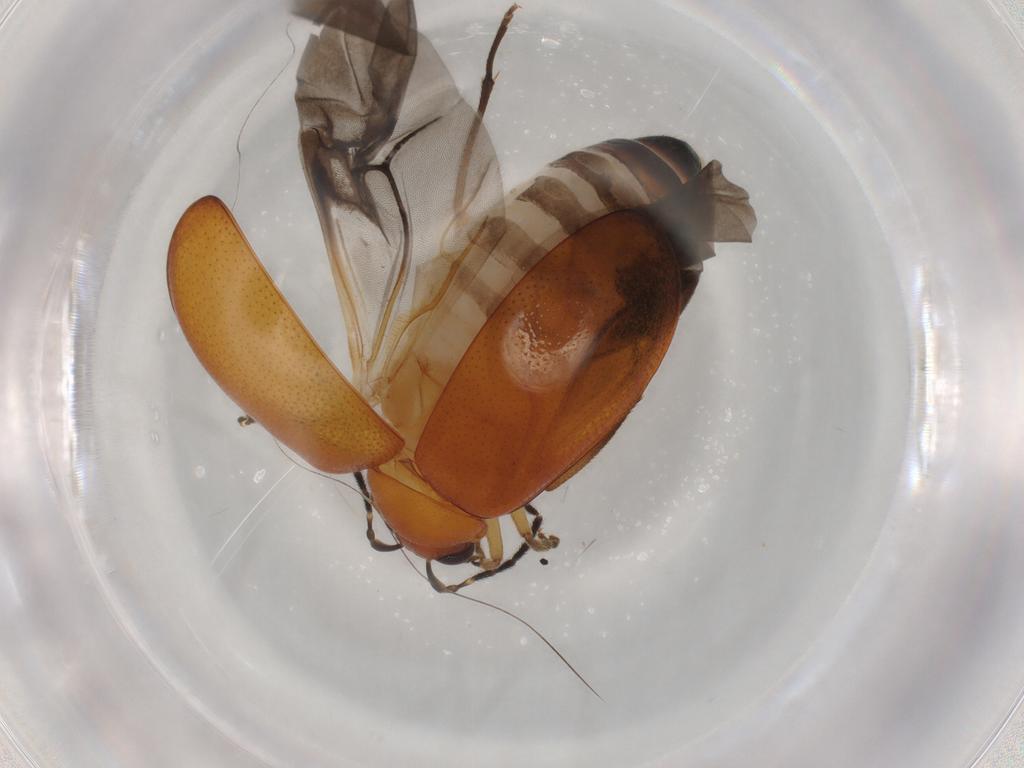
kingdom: Animalia
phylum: Arthropoda
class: Insecta
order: Coleoptera
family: Chrysomelidae
